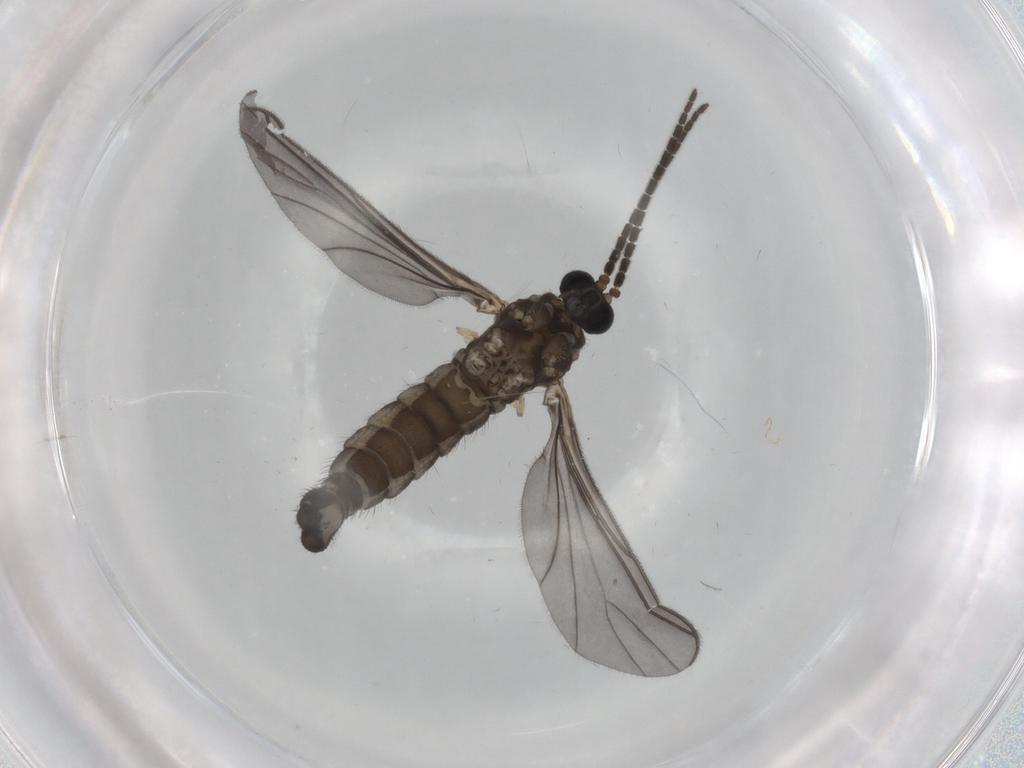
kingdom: Animalia
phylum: Arthropoda
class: Insecta
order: Diptera
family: Sciaridae
